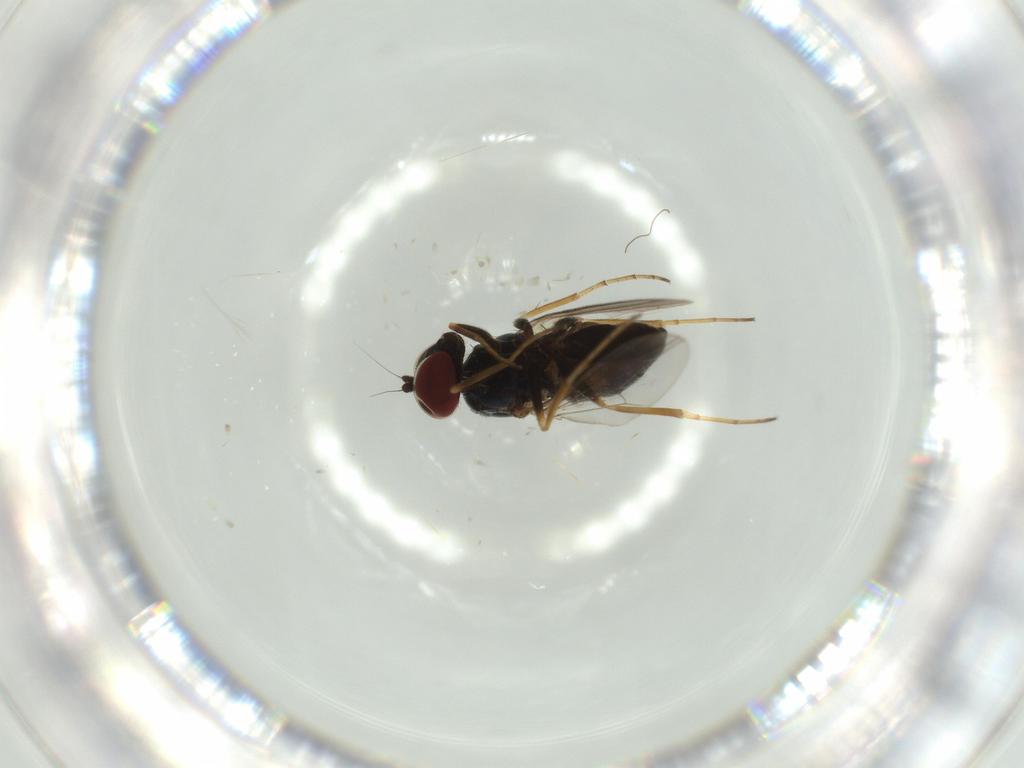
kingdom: Animalia
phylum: Arthropoda
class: Insecta
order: Diptera
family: Dolichopodidae
